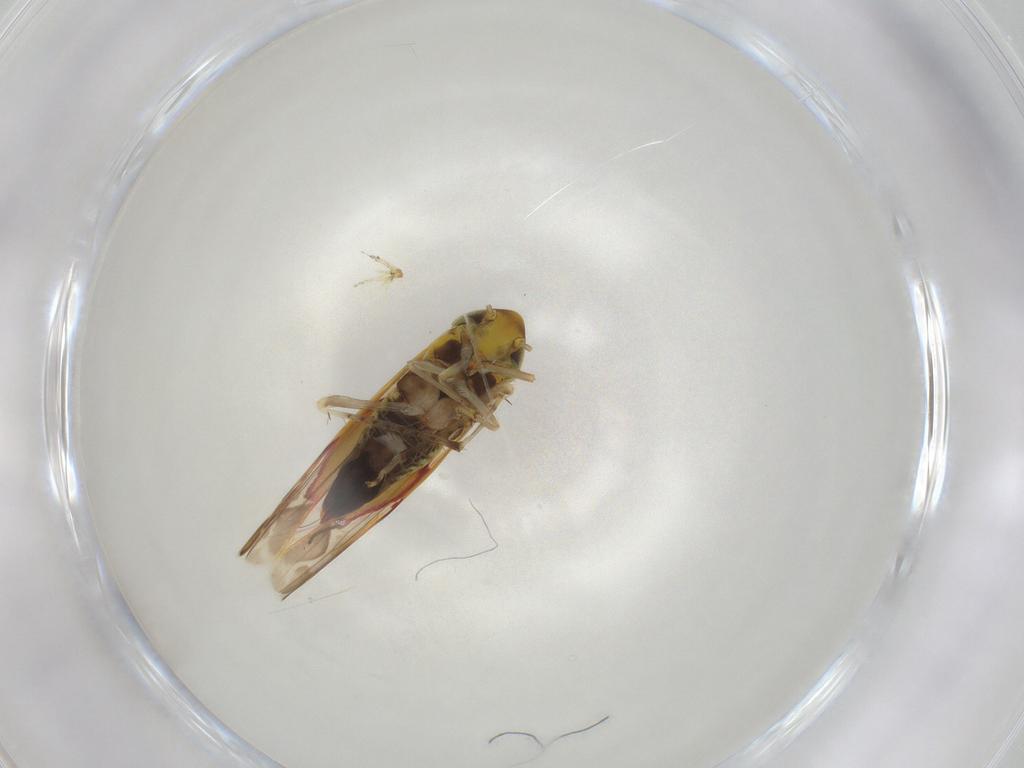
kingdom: Animalia
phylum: Arthropoda
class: Insecta
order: Hemiptera
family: Cicadellidae
